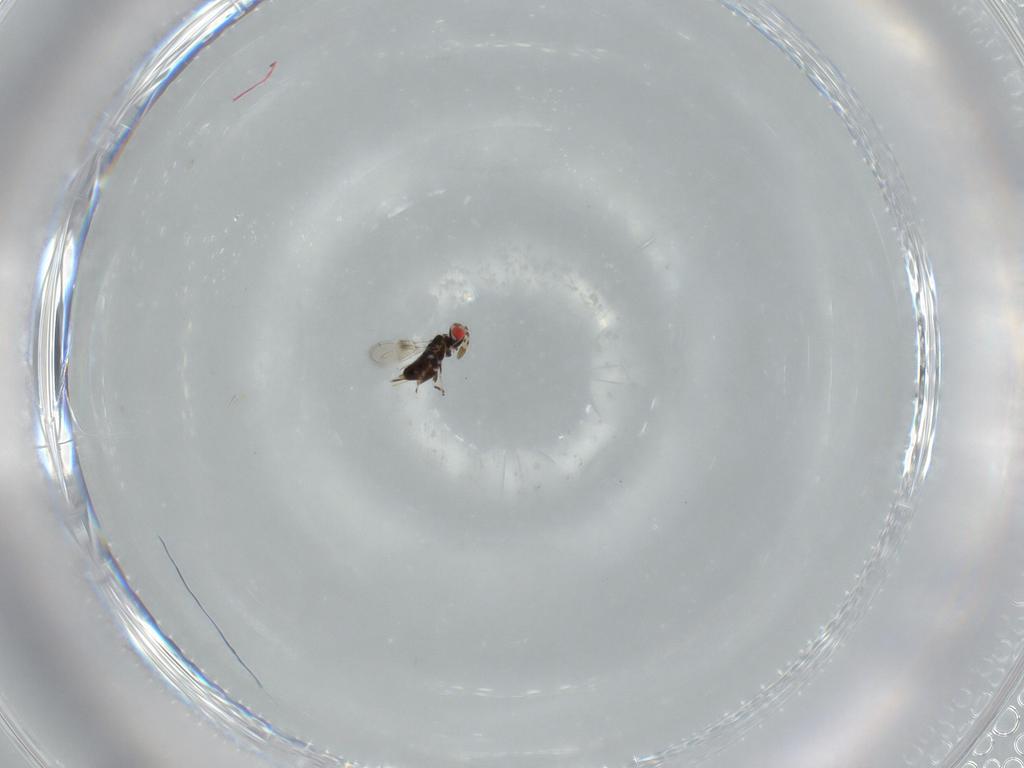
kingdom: Animalia
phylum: Arthropoda
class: Insecta
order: Hymenoptera
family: Azotidae
